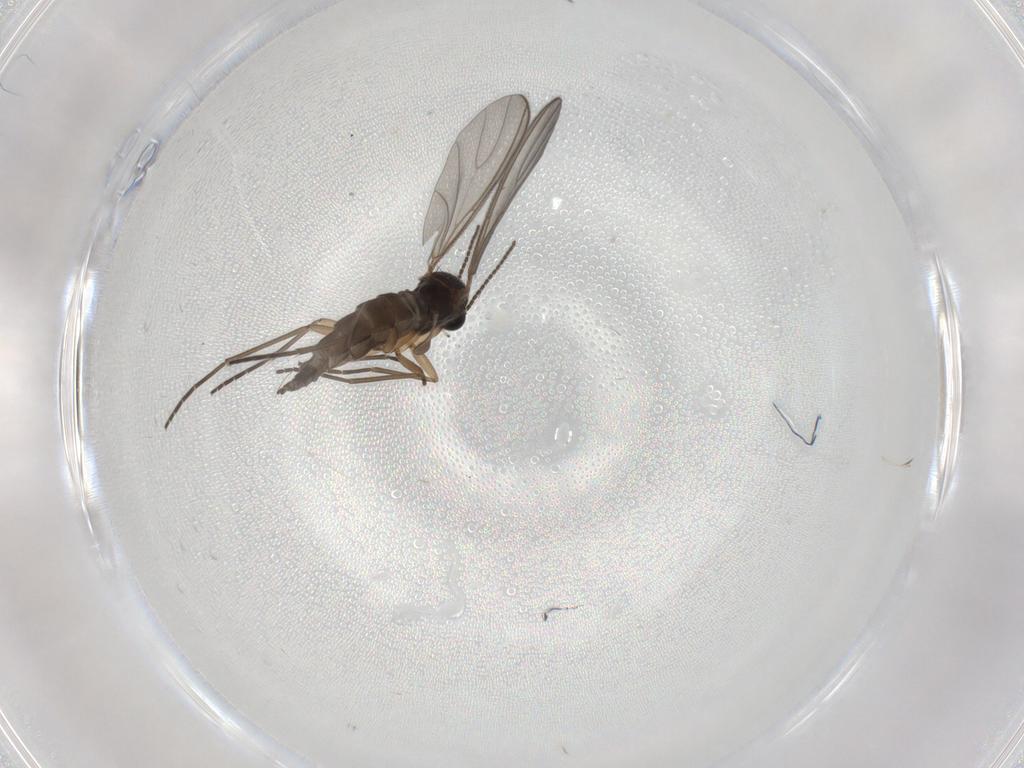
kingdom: Animalia
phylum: Arthropoda
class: Insecta
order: Diptera
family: Sciaridae
